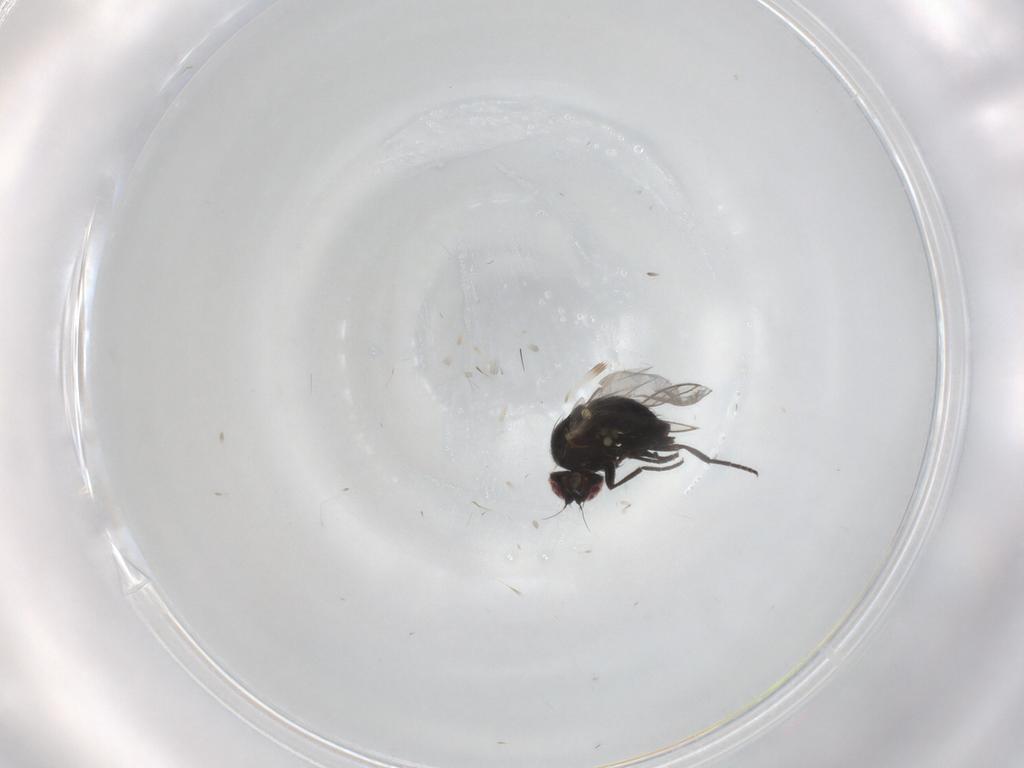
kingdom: Animalia
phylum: Arthropoda
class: Insecta
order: Diptera
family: Agromyzidae
